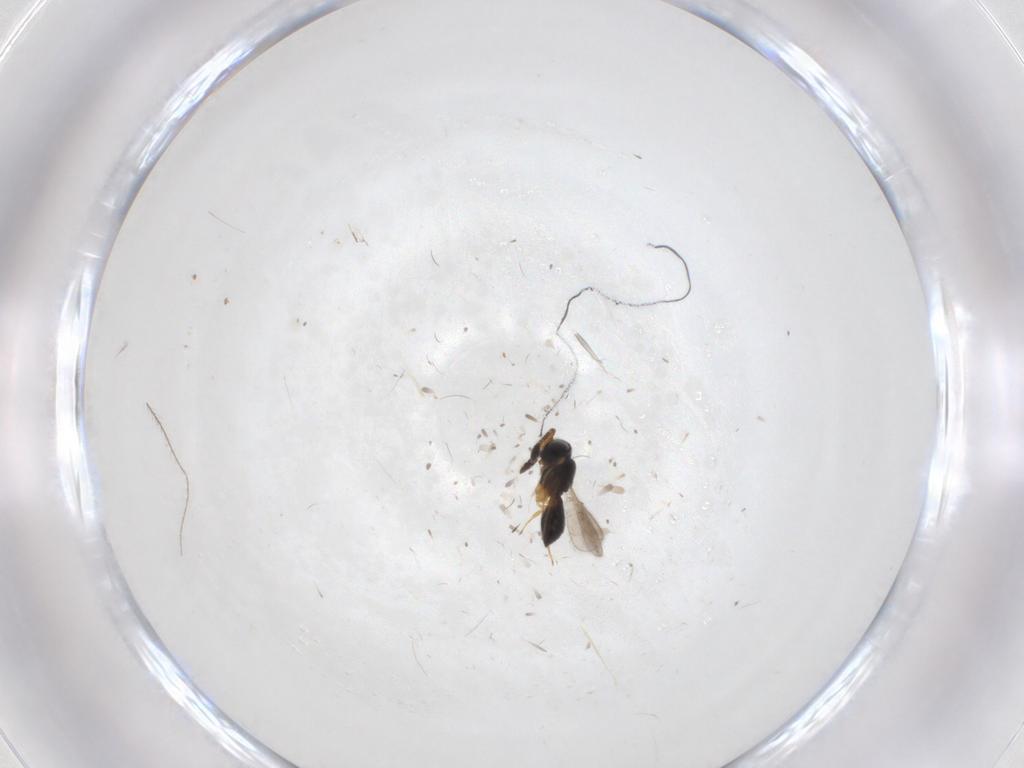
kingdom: Animalia
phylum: Arthropoda
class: Insecta
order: Hymenoptera
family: Scelionidae
